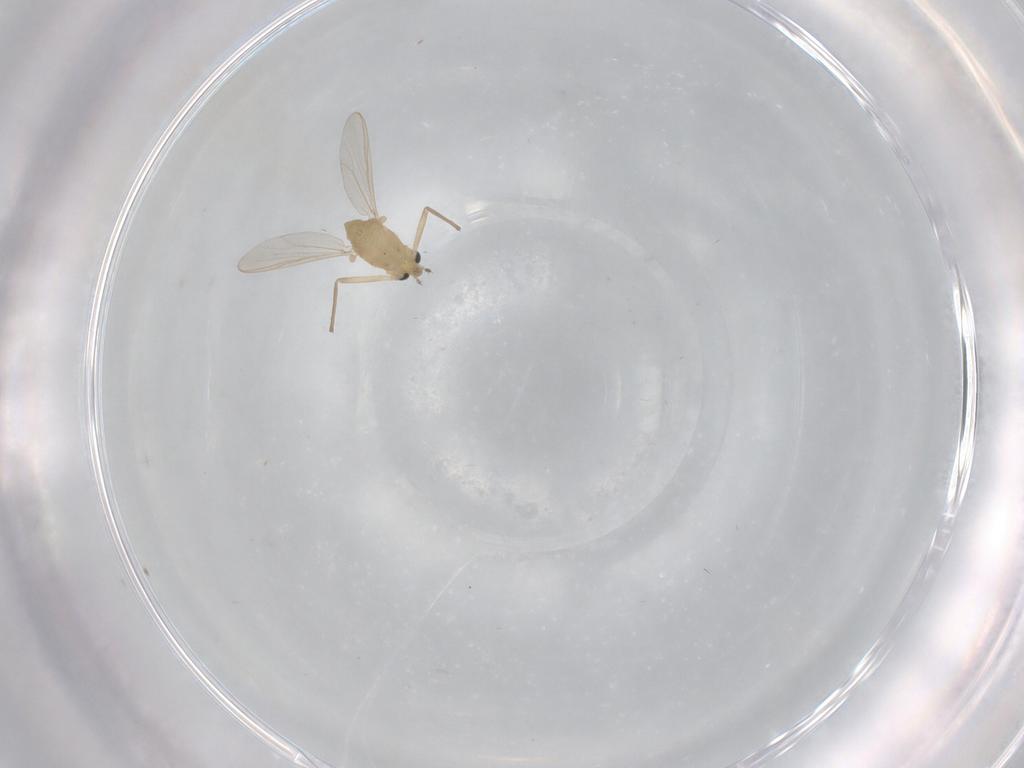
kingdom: Animalia
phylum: Arthropoda
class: Insecta
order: Diptera
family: Chironomidae
